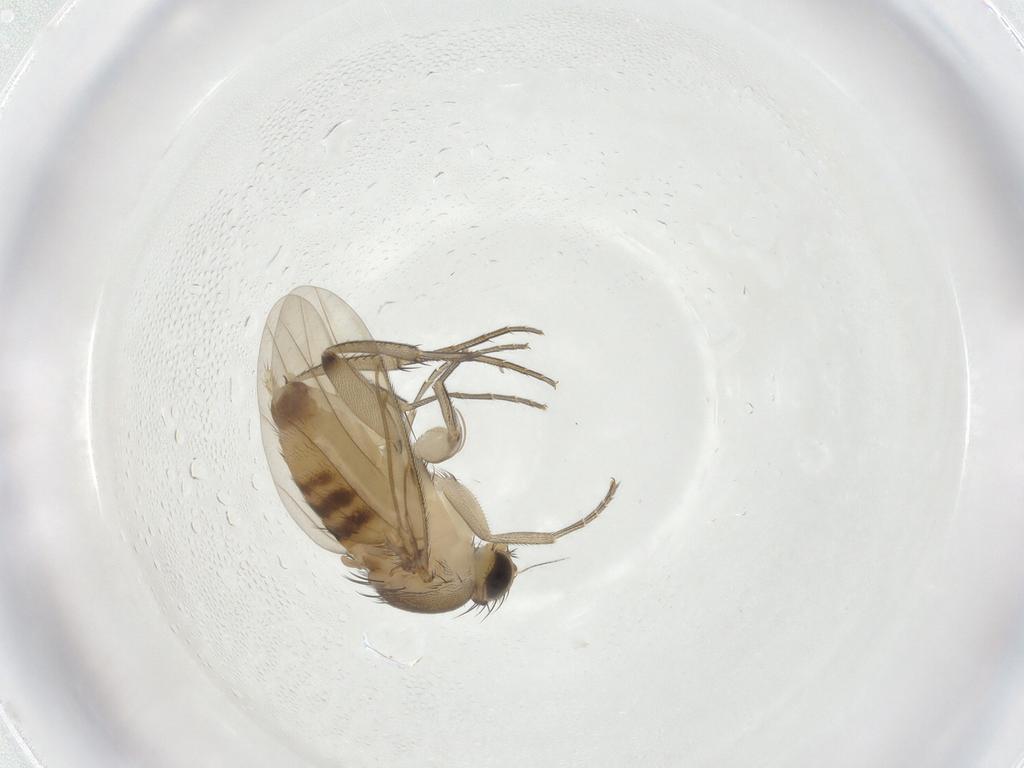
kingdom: Animalia
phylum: Arthropoda
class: Insecta
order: Diptera
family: Phoridae
